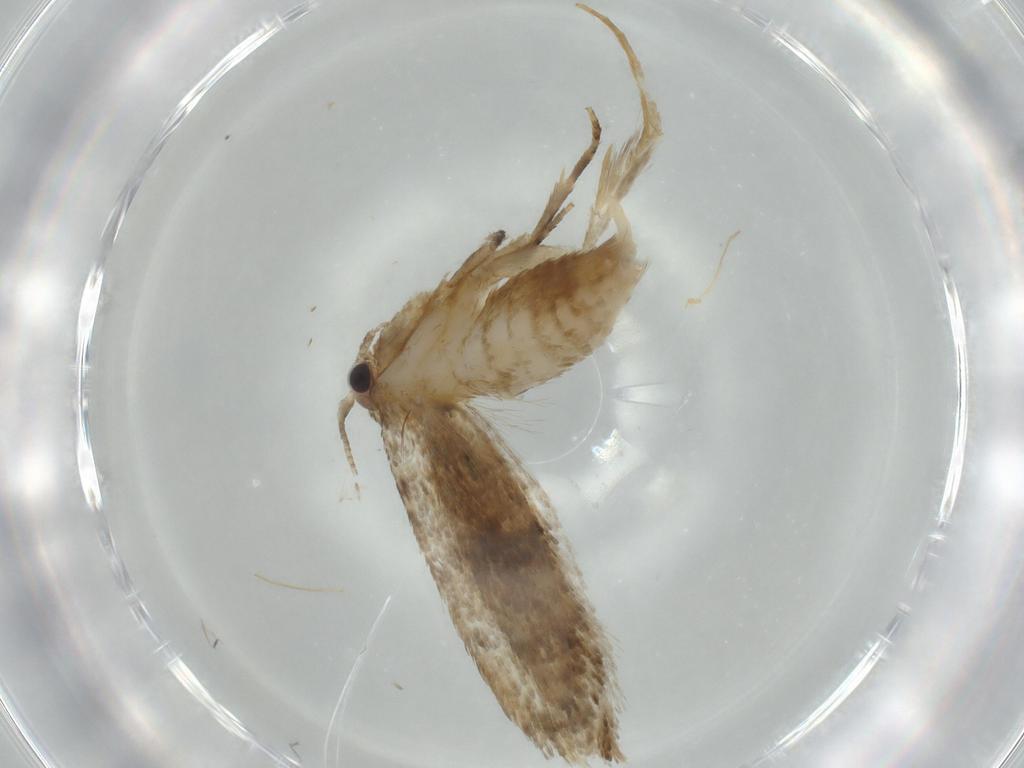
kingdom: Animalia
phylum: Arthropoda
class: Insecta
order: Lepidoptera
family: Tineidae
